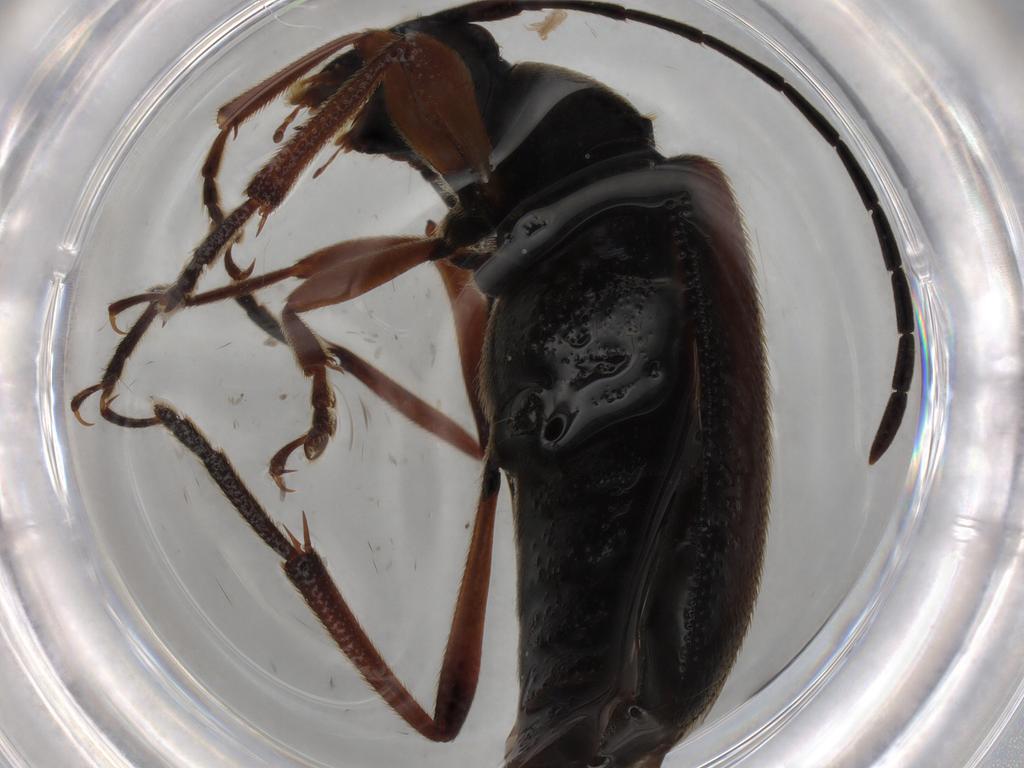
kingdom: Animalia
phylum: Arthropoda
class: Insecta
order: Coleoptera
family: Cerambycidae
